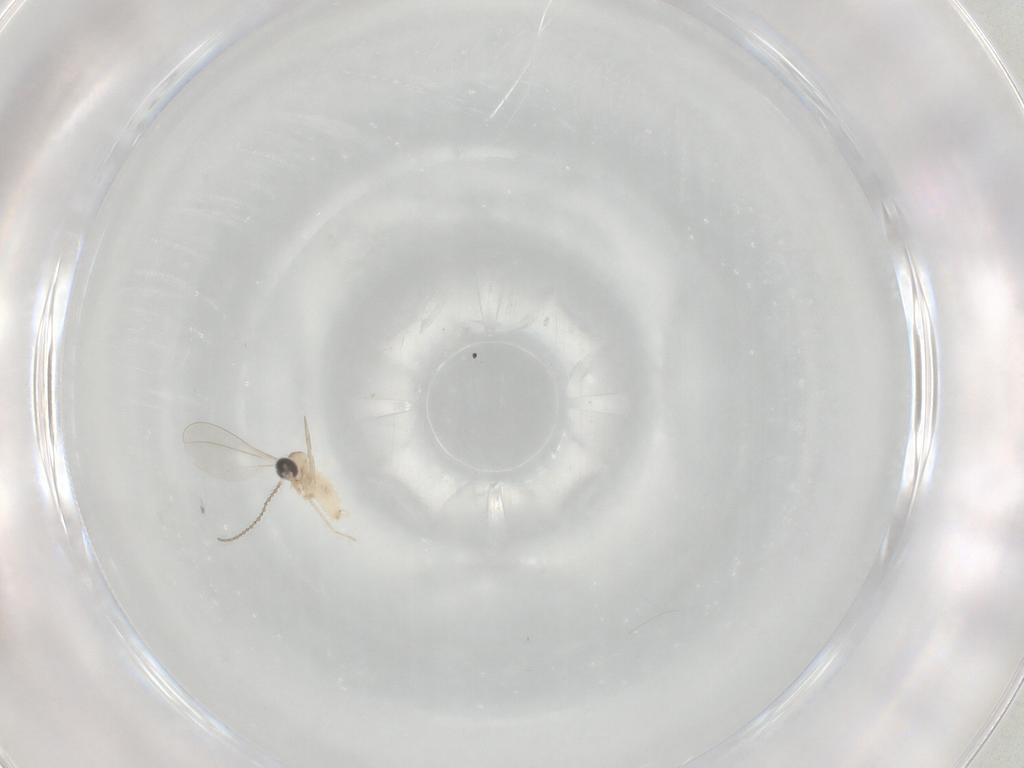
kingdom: Animalia
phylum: Arthropoda
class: Insecta
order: Diptera
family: Cecidomyiidae
